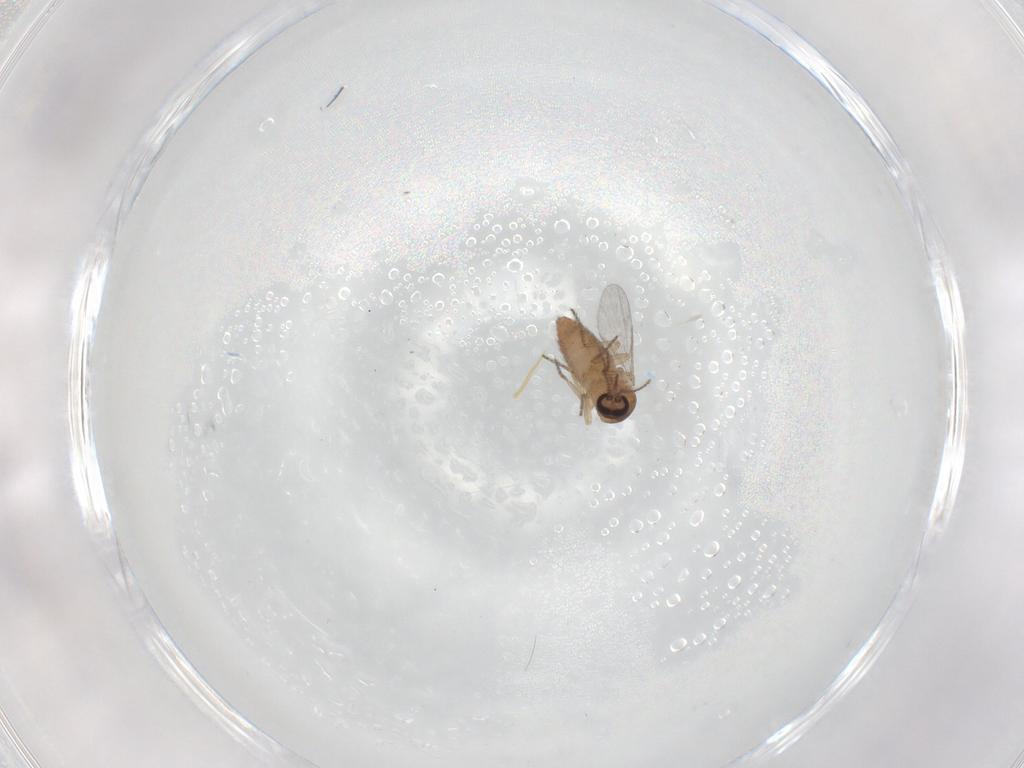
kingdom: Animalia
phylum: Arthropoda
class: Insecta
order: Diptera
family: Ceratopogonidae
